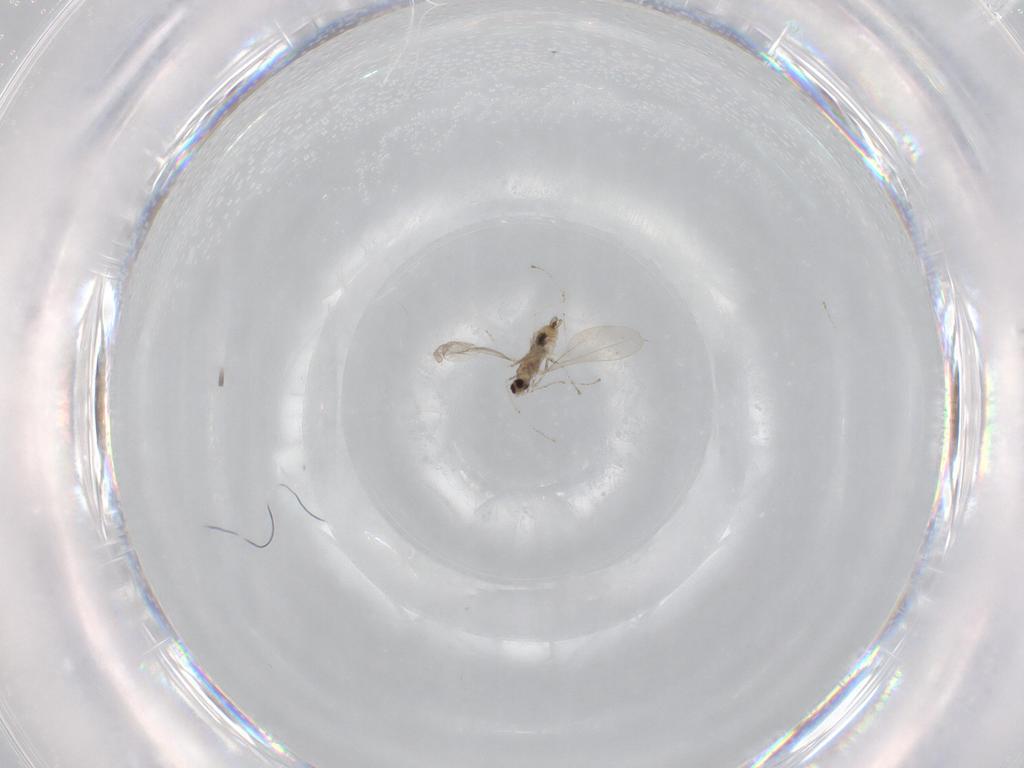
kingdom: Animalia
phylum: Arthropoda
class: Insecta
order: Diptera
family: Cecidomyiidae
